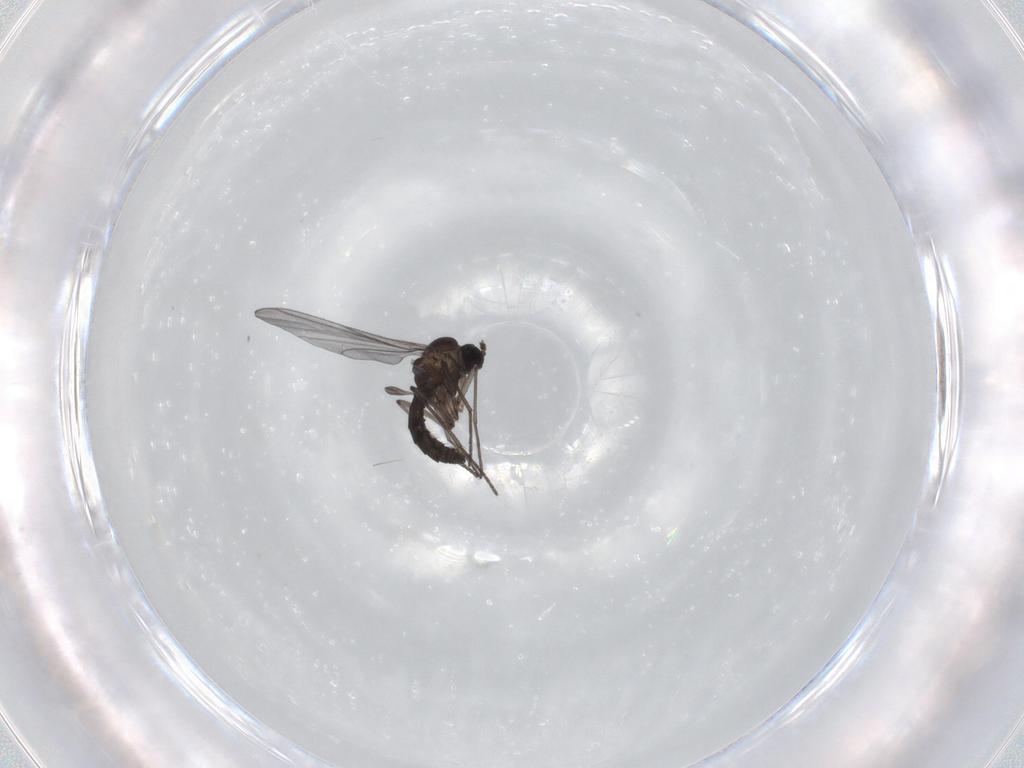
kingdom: Animalia
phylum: Arthropoda
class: Insecta
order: Diptera
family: Sciaridae
